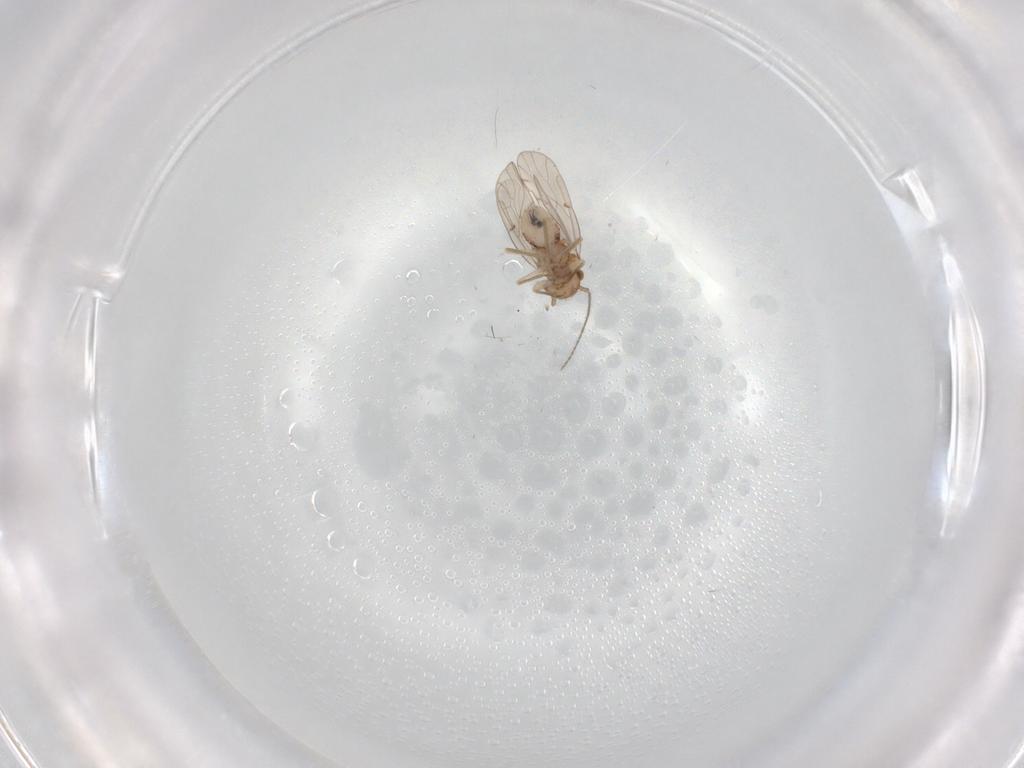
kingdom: Animalia
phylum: Arthropoda
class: Insecta
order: Psocodea
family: Ectopsocidae
